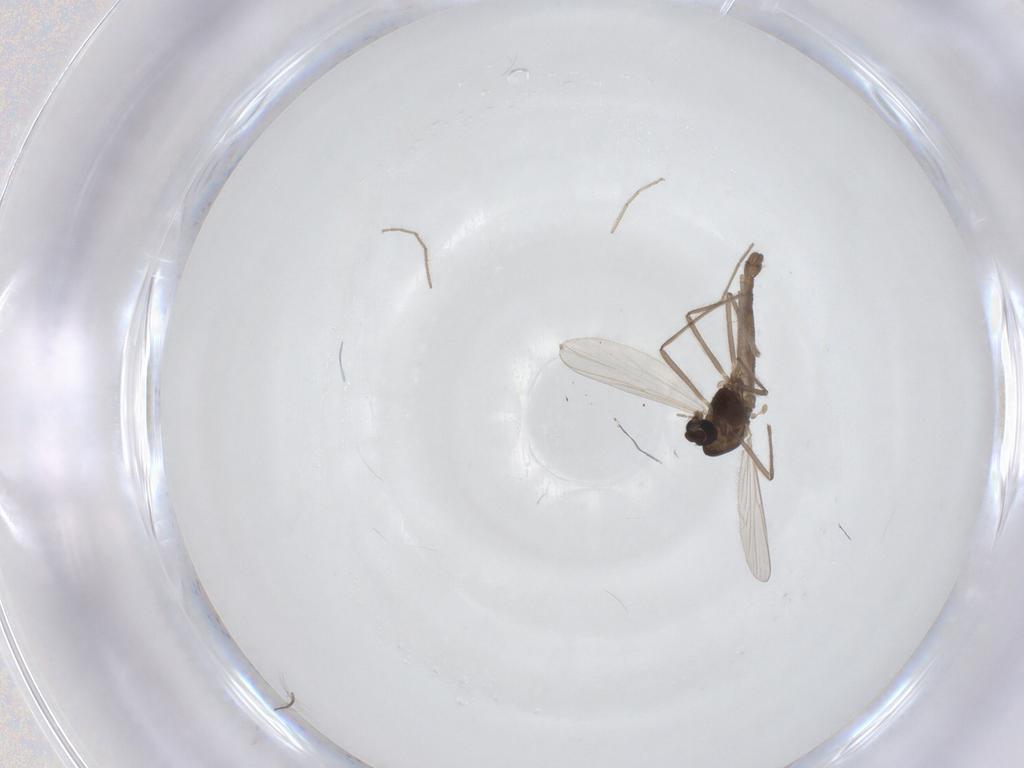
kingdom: Animalia
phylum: Arthropoda
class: Insecta
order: Diptera
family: Chironomidae
